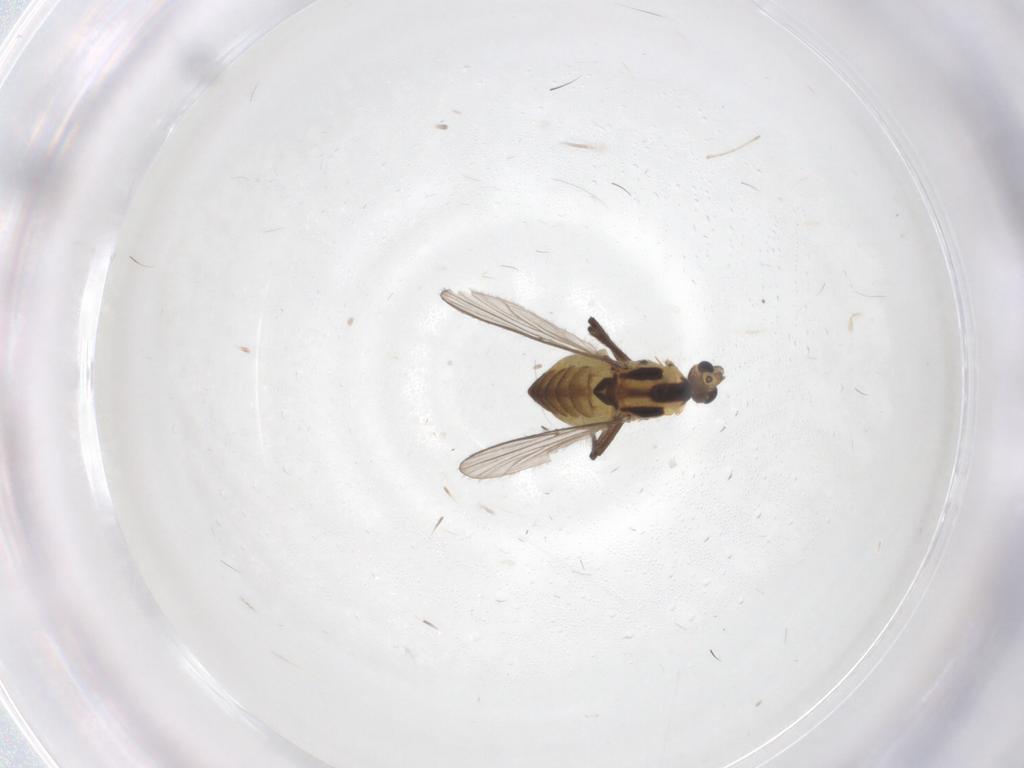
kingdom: Animalia
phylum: Arthropoda
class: Insecta
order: Diptera
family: Chironomidae
